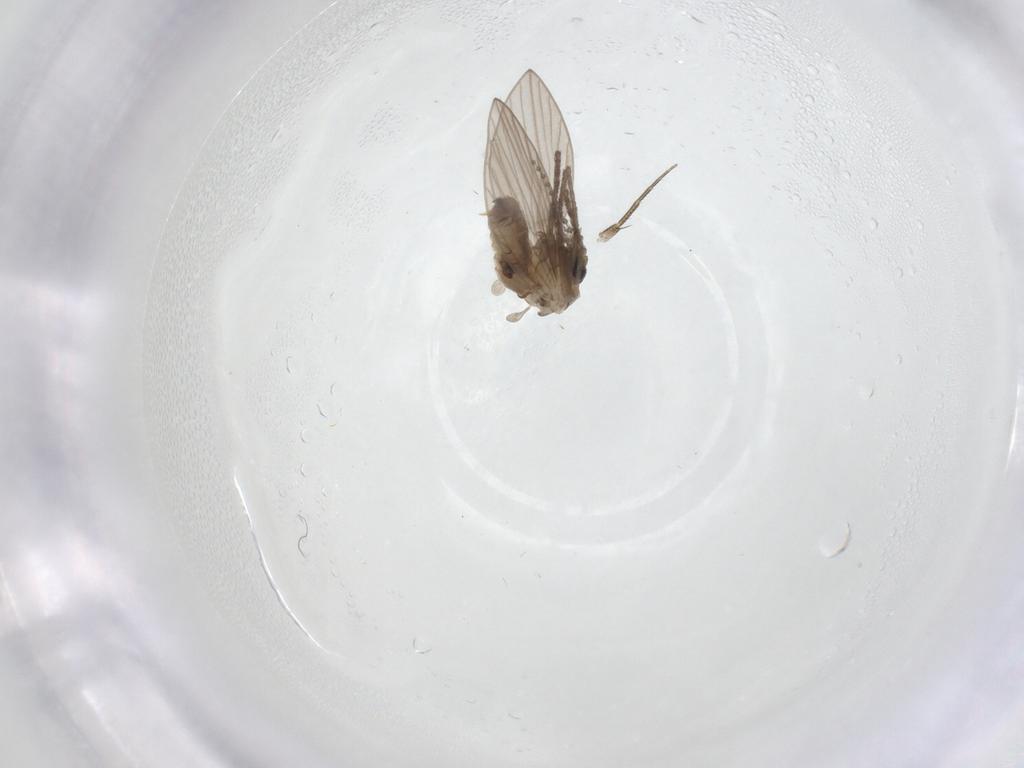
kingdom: Animalia
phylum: Arthropoda
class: Insecta
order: Diptera
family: Psychodidae
